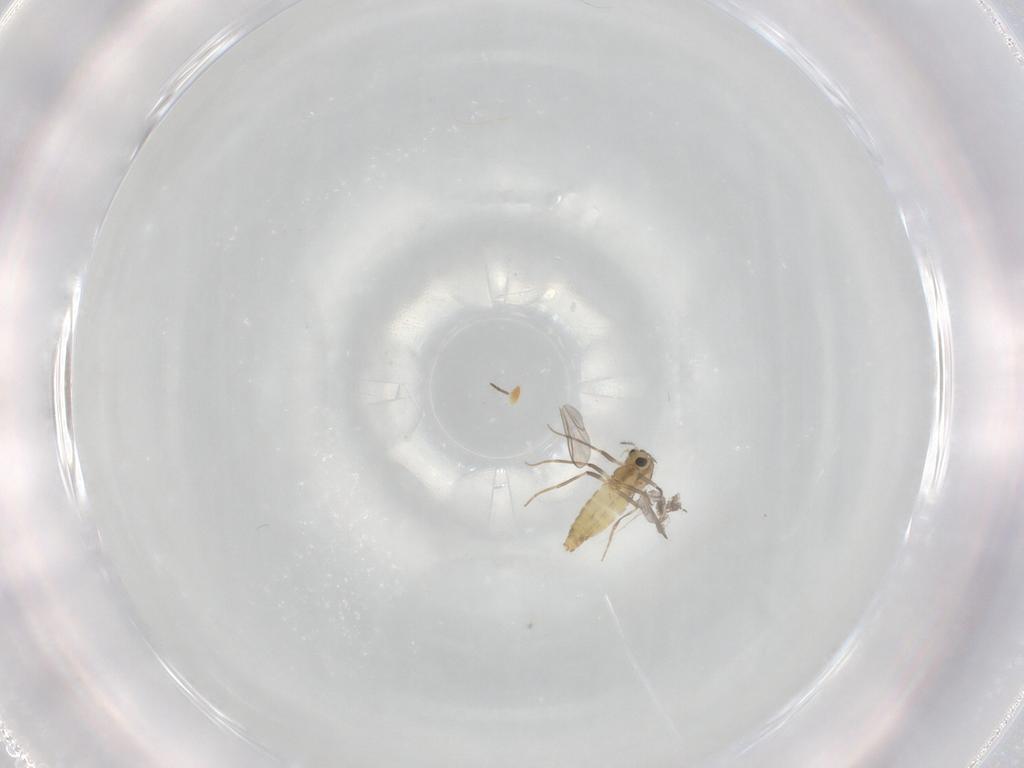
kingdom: Animalia
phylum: Arthropoda
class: Insecta
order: Diptera
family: Chironomidae
